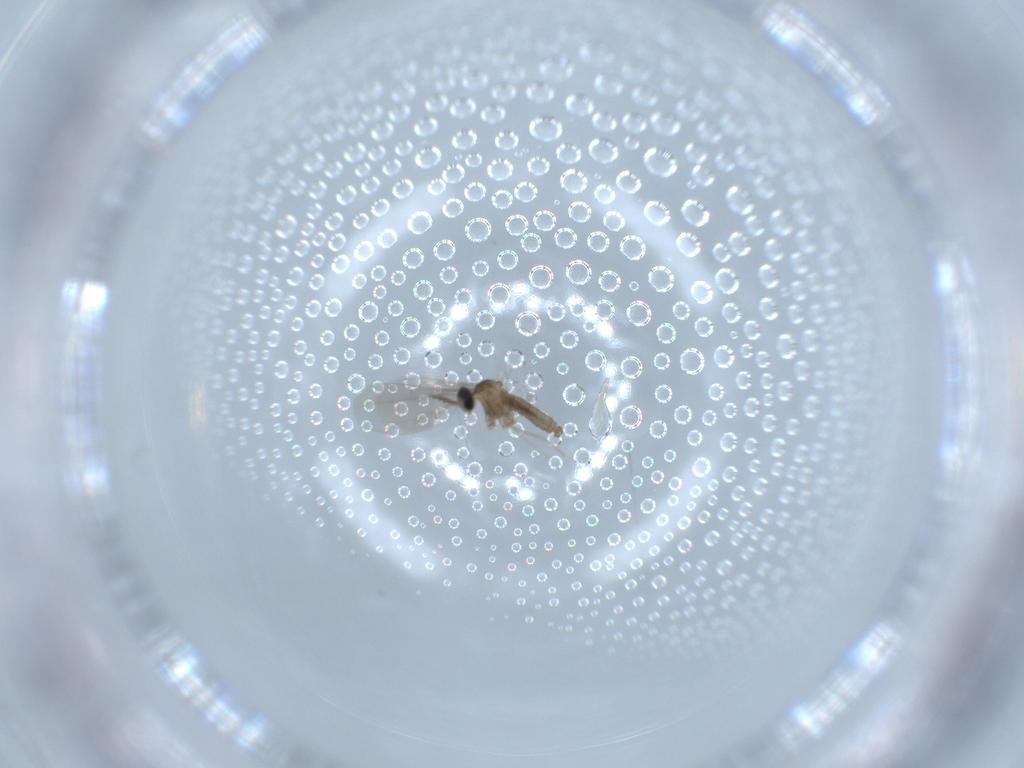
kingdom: Animalia
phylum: Arthropoda
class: Insecta
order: Diptera
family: Cecidomyiidae
